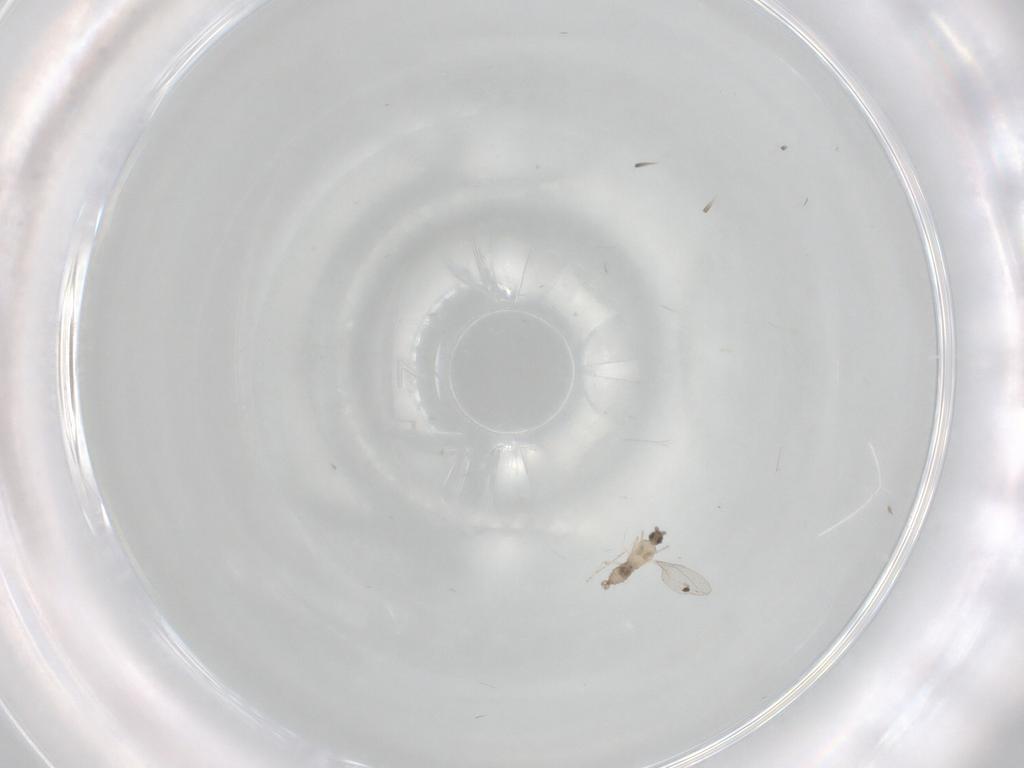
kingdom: Animalia
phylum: Arthropoda
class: Insecta
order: Diptera
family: Cecidomyiidae
